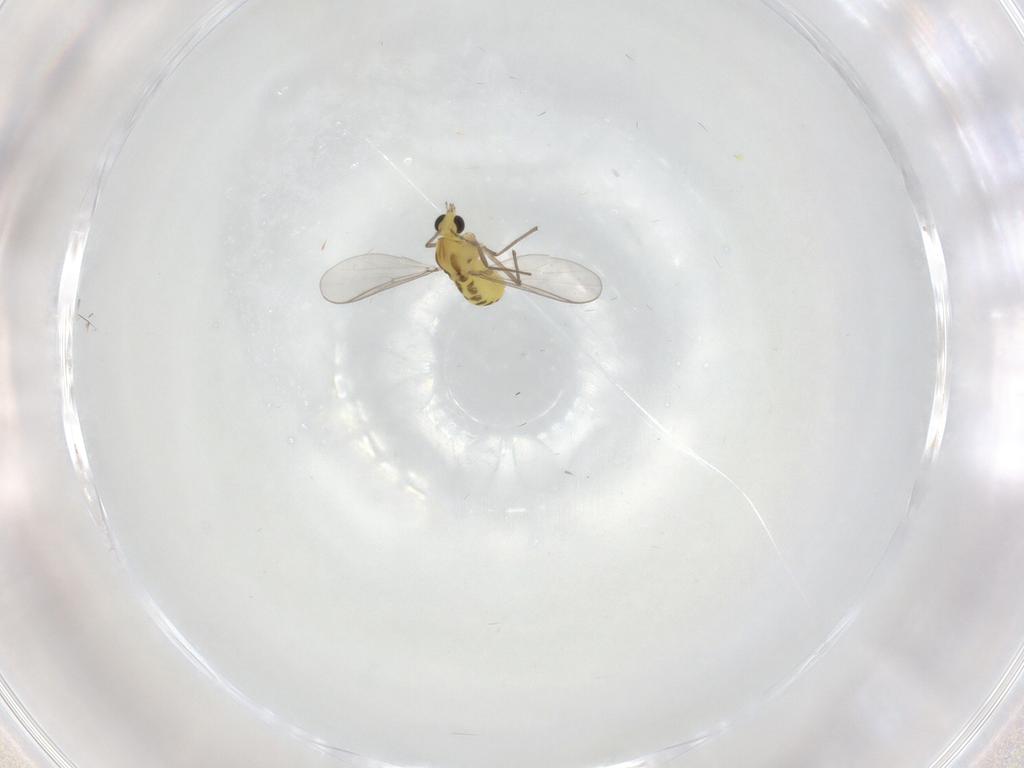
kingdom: Animalia
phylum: Arthropoda
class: Insecta
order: Diptera
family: Chironomidae
